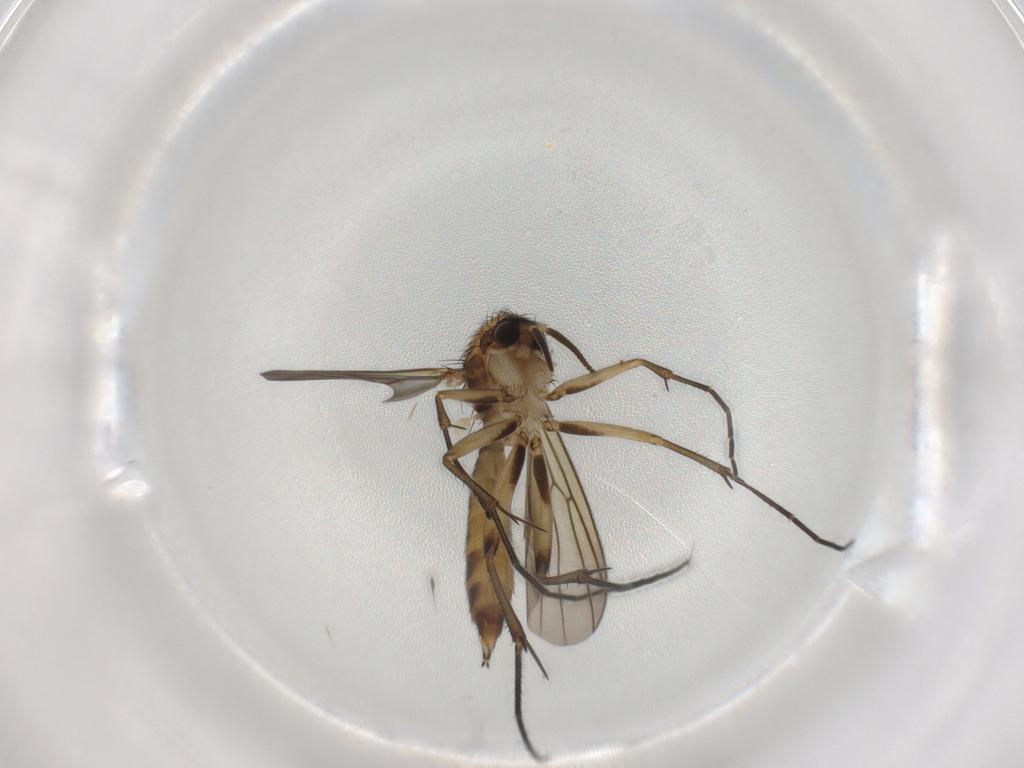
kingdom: Animalia
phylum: Arthropoda
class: Insecta
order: Diptera
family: Mycetophilidae
